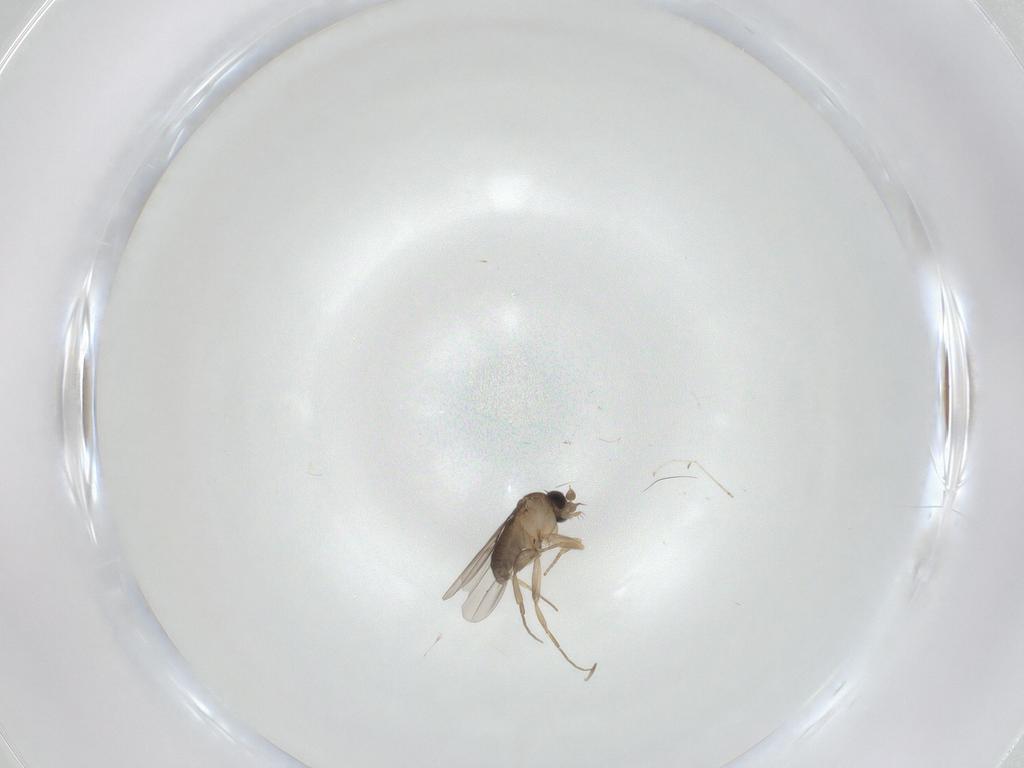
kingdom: Animalia
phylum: Arthropoda
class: Insecta
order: Diptera
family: Phoridae
